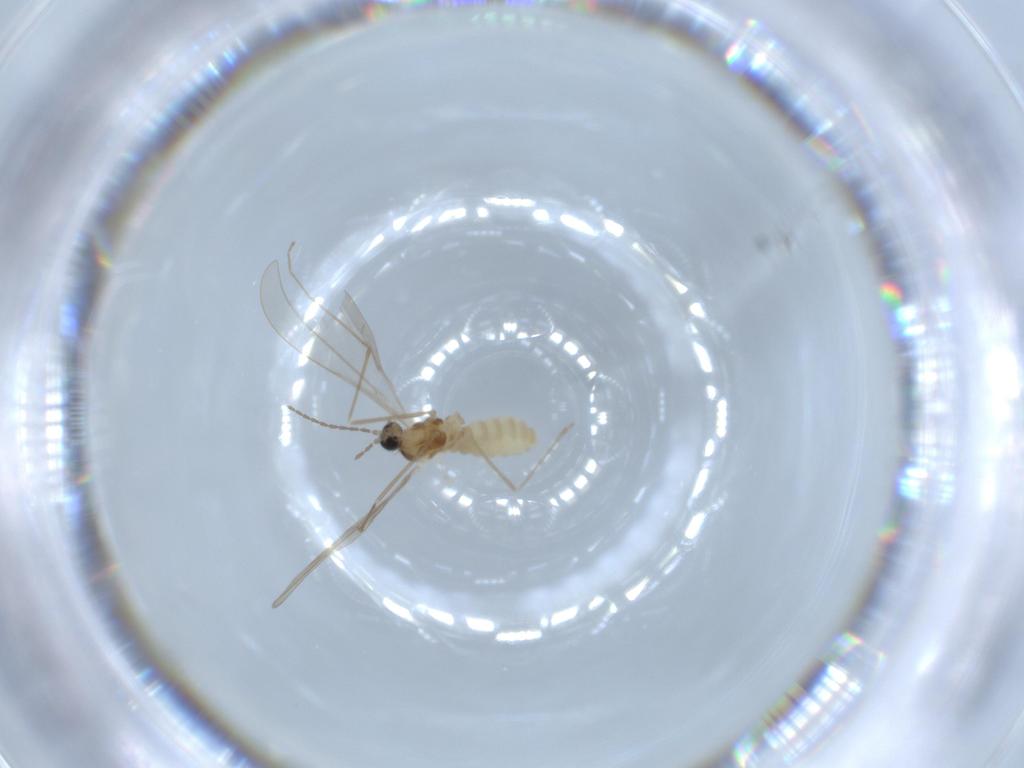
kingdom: Animalia
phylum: Arthropoda
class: Insecta
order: Diptera
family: Cecidomyiidae
